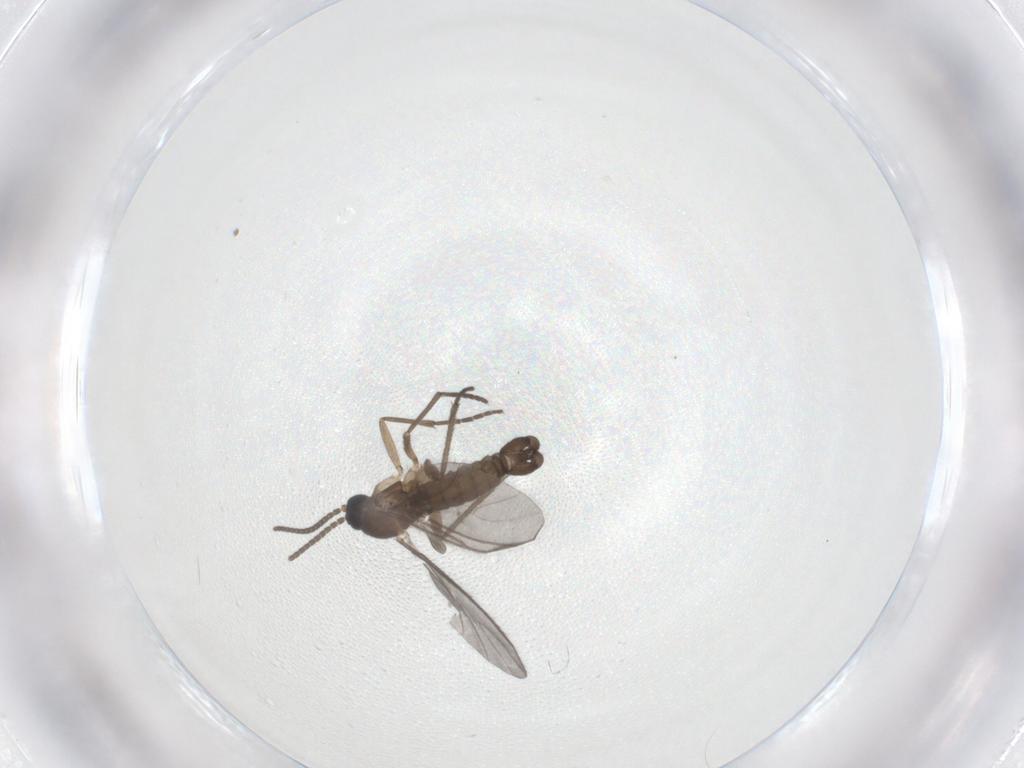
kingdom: Animalia
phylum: Arthropoda
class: Insecta
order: Diptera
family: Sciaridae
